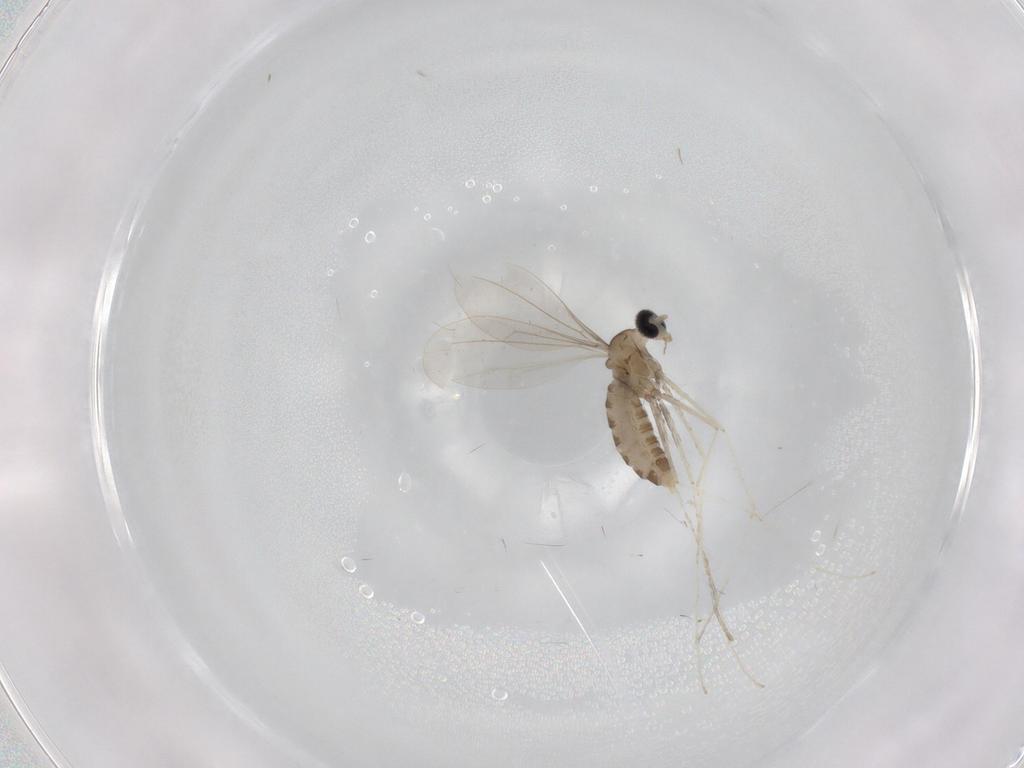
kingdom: Animalia
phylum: Arthropoda
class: Insecta
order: Diptera
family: Cecidomyiidae
